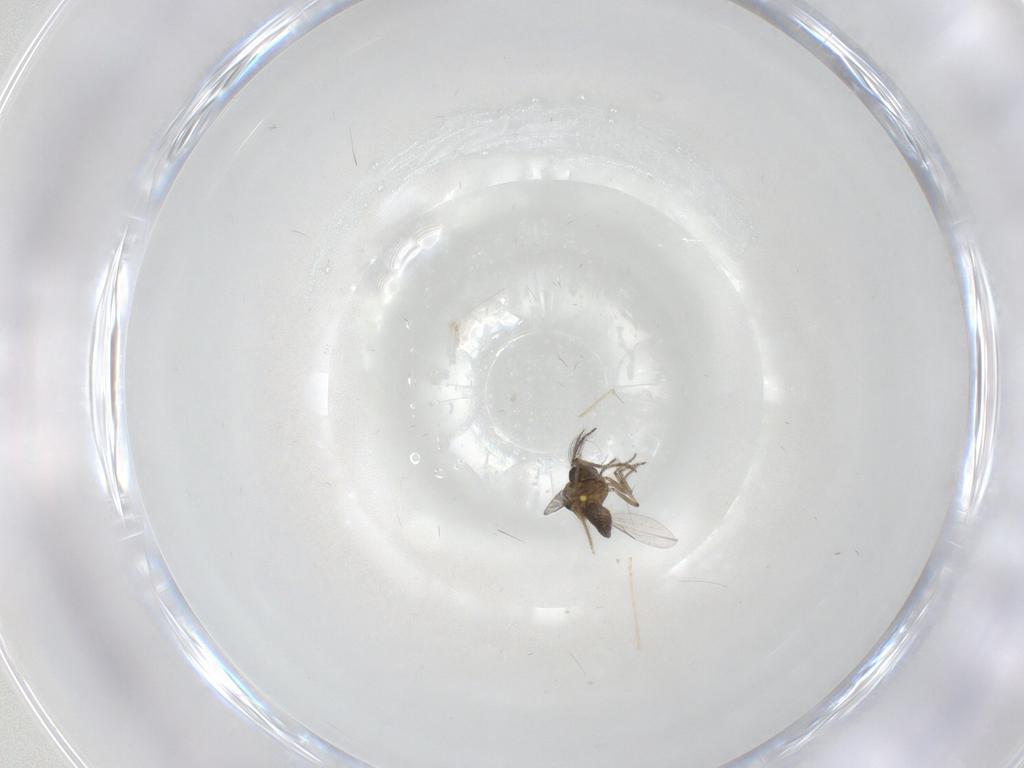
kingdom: Animalia
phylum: Arthropoda
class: Insecta
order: Diptera
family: Chironomidae
